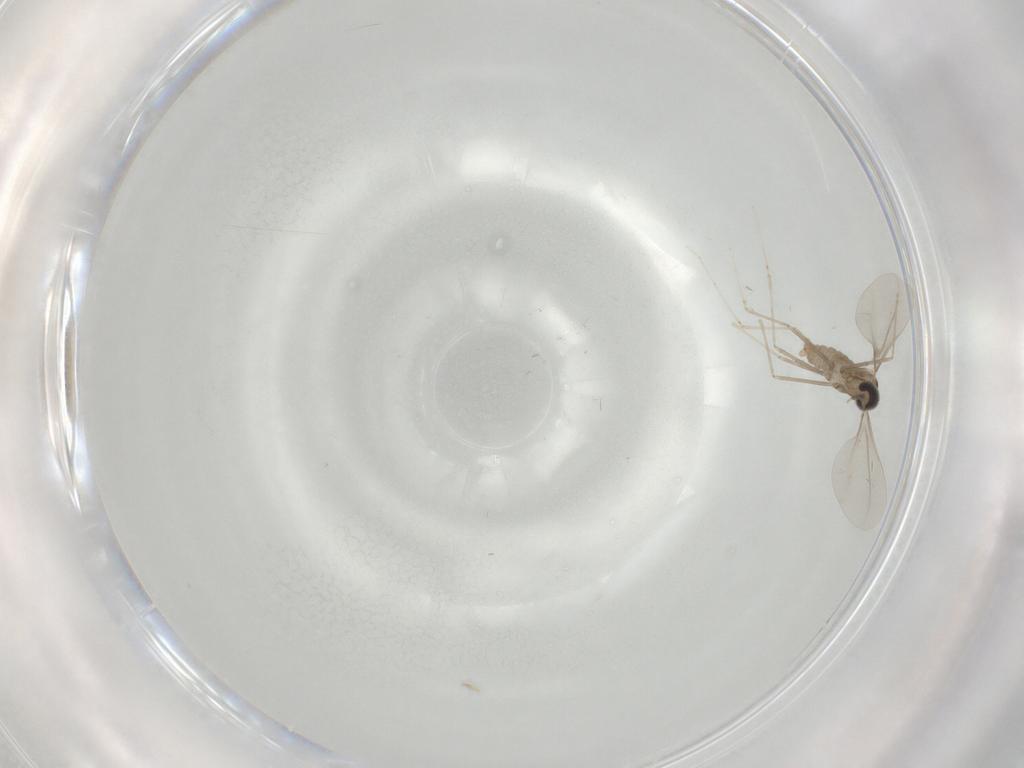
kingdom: Animalia
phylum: Arthropoda
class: Insecta
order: Diptera
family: Cecidomyiidae
